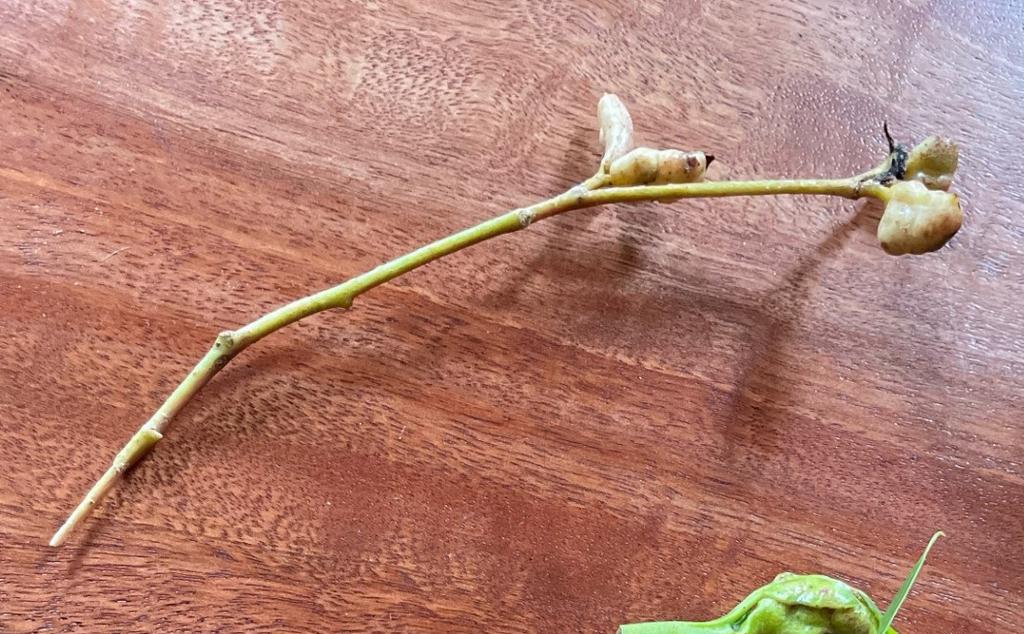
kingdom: Animalia
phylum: Arthropoda
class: Insecta
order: Diptera
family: Fergusoninidae
